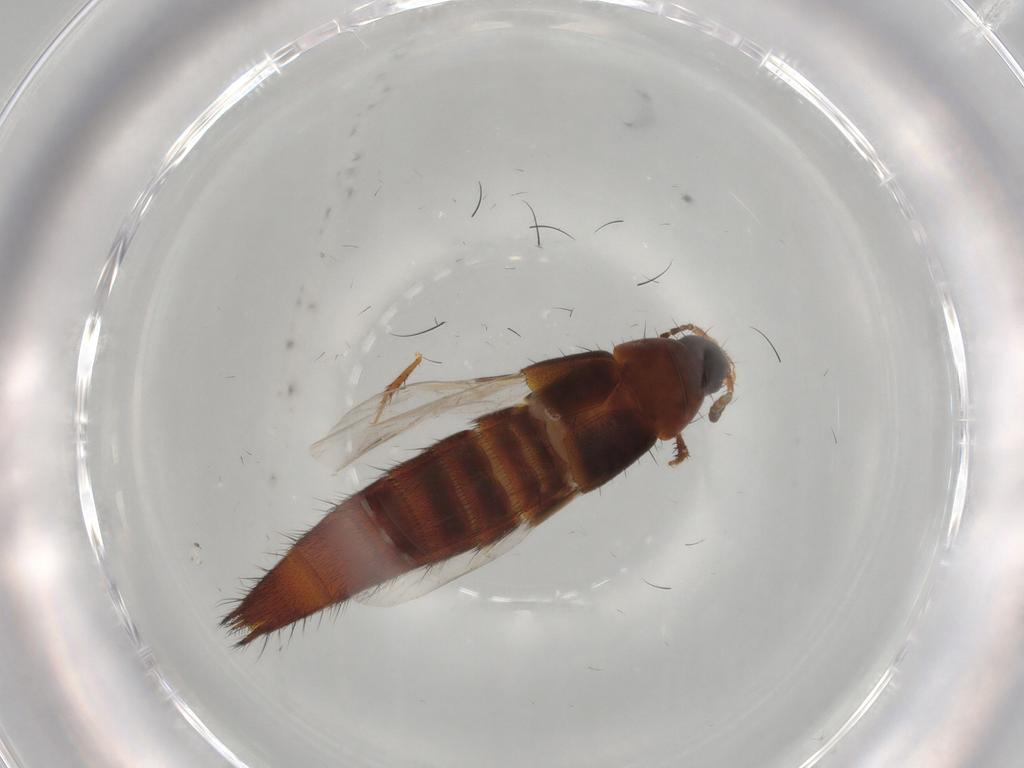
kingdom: Animalia
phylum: Arthropoda
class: Insecta
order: Coleoptera
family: Staphylinidae
